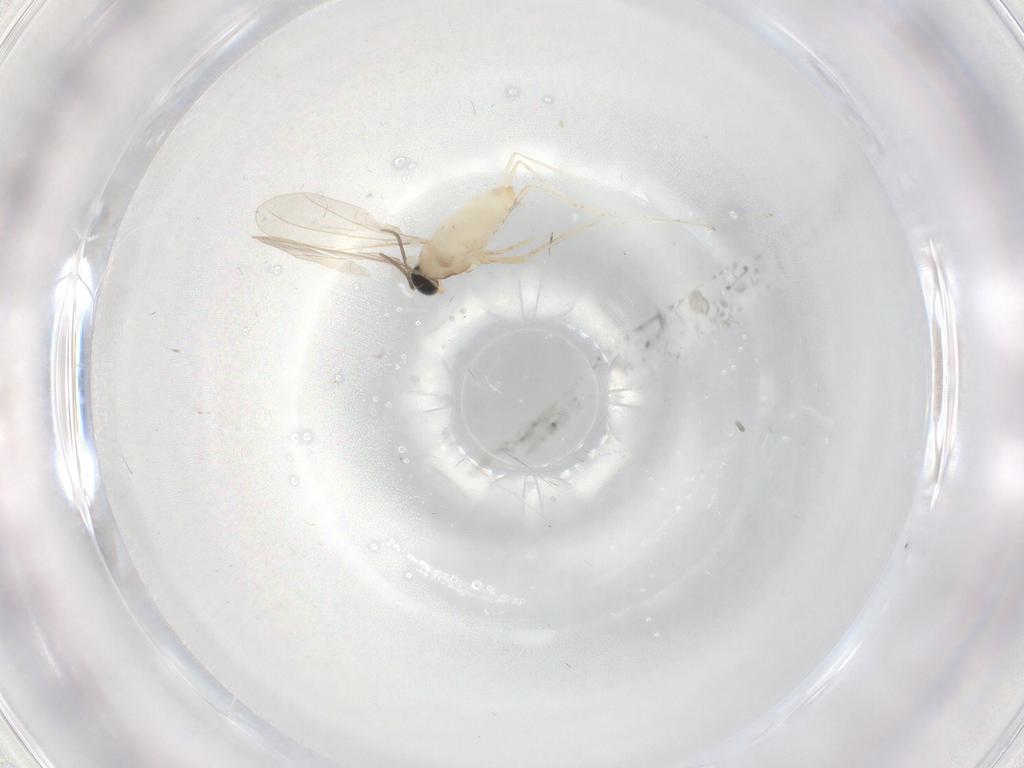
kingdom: Animalia
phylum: Arthropoda
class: Insecta
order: Diptera
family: Cecidomyiidae
